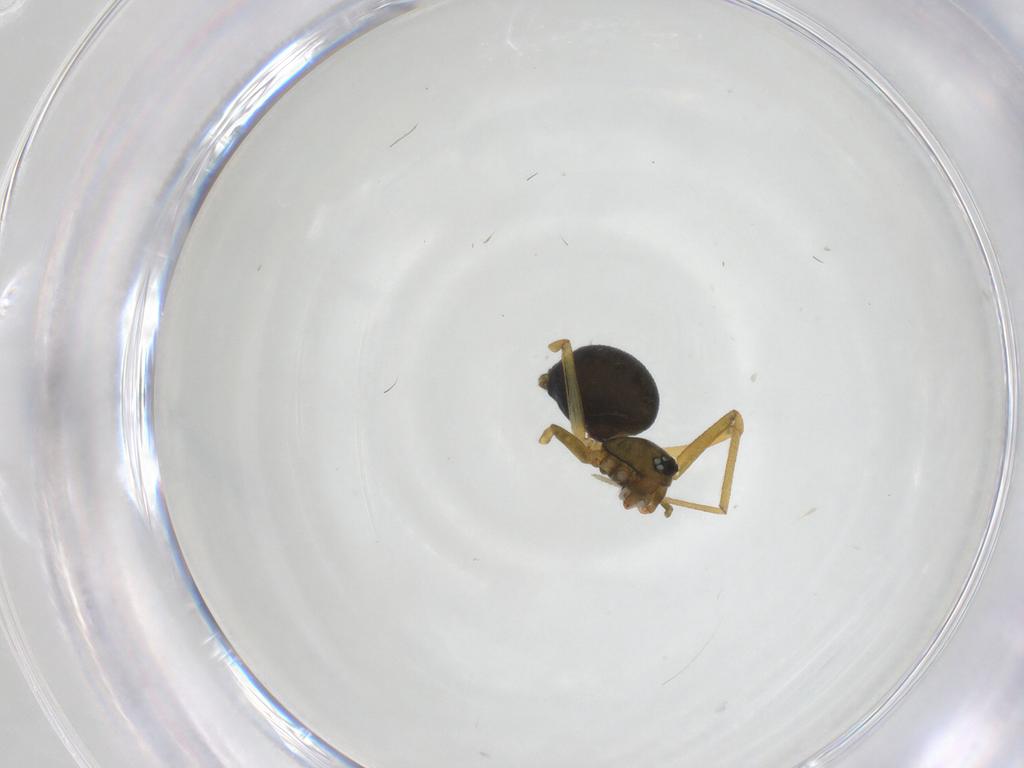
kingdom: Animalia
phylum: Arthropoda
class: Arachnida
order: Araneae
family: Linyphiidae
